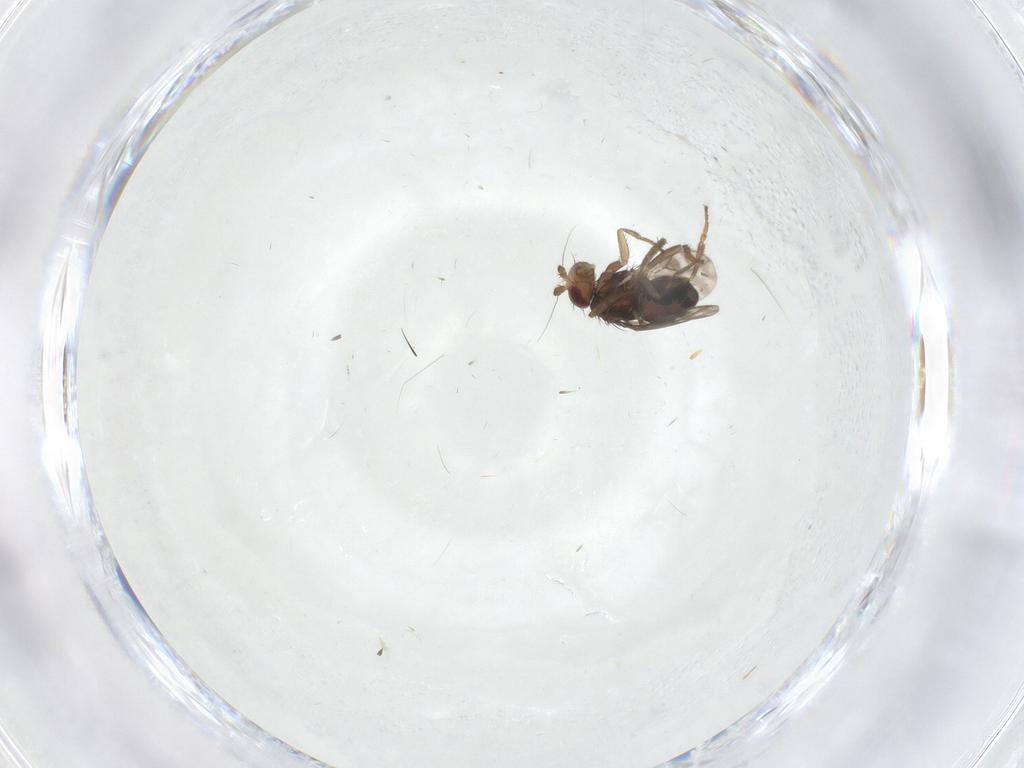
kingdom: Animalia
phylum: Arthropoda
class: Insecta
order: Diptera
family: Sphaeroceridae
